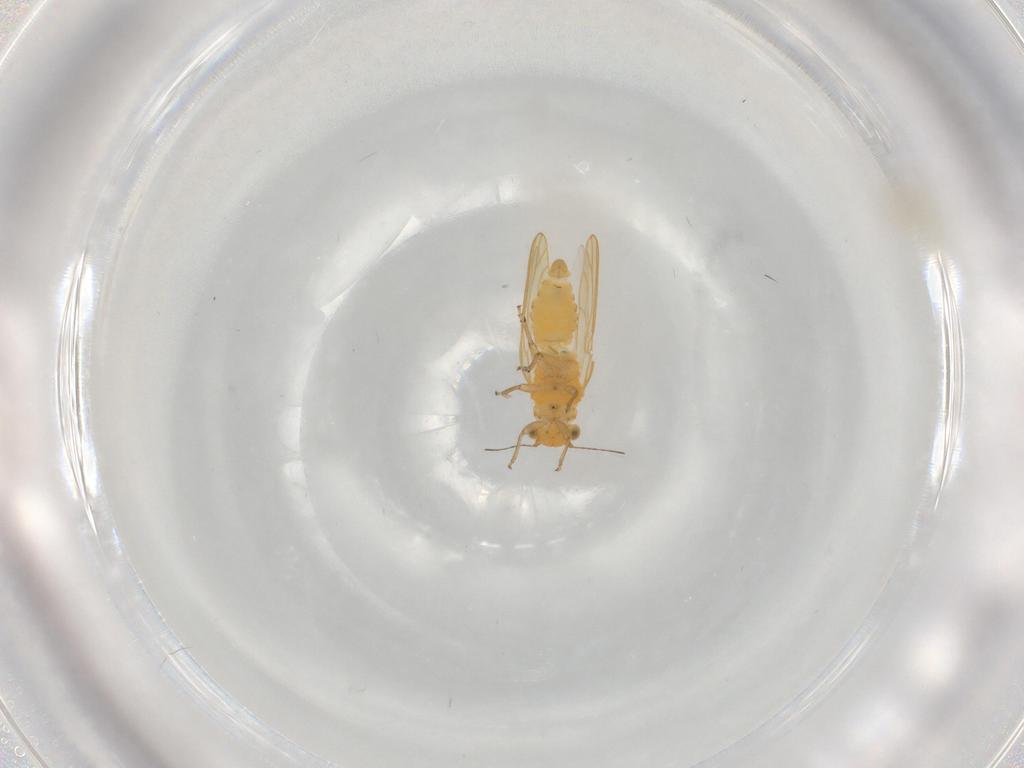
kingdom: Animalia
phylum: Arthropoda
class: Insecta
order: Hemiptera
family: Aleyrodidae
